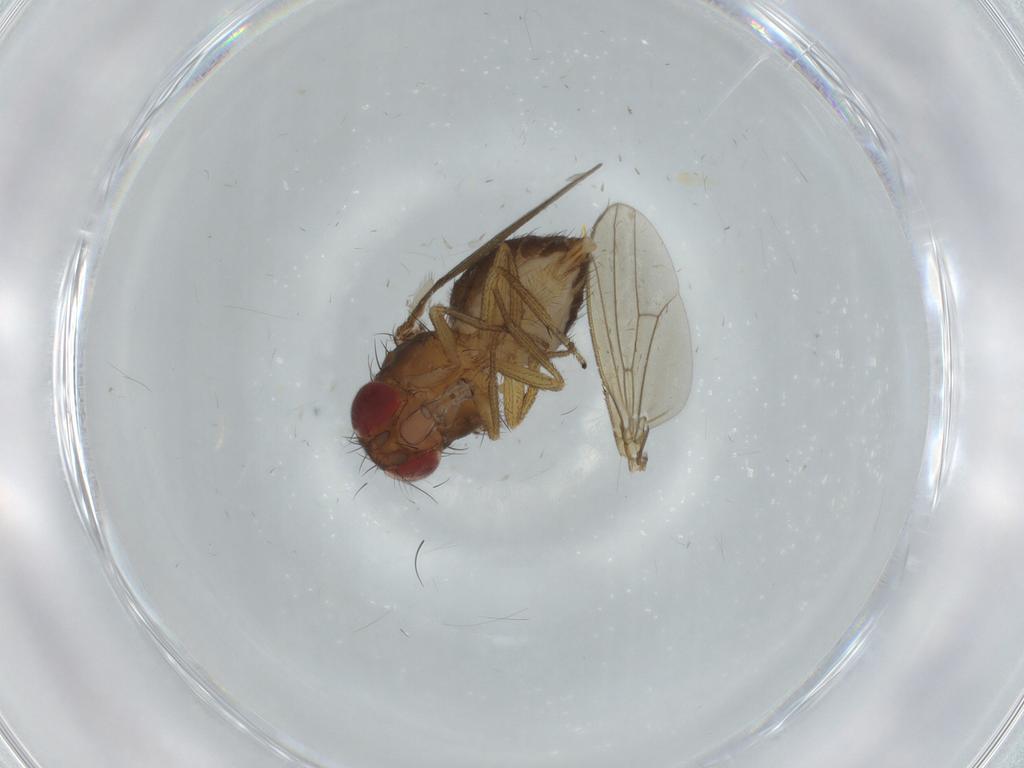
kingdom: Animalia
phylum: Arthropoda
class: Insecta
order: Diptera
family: Drosophilidae
